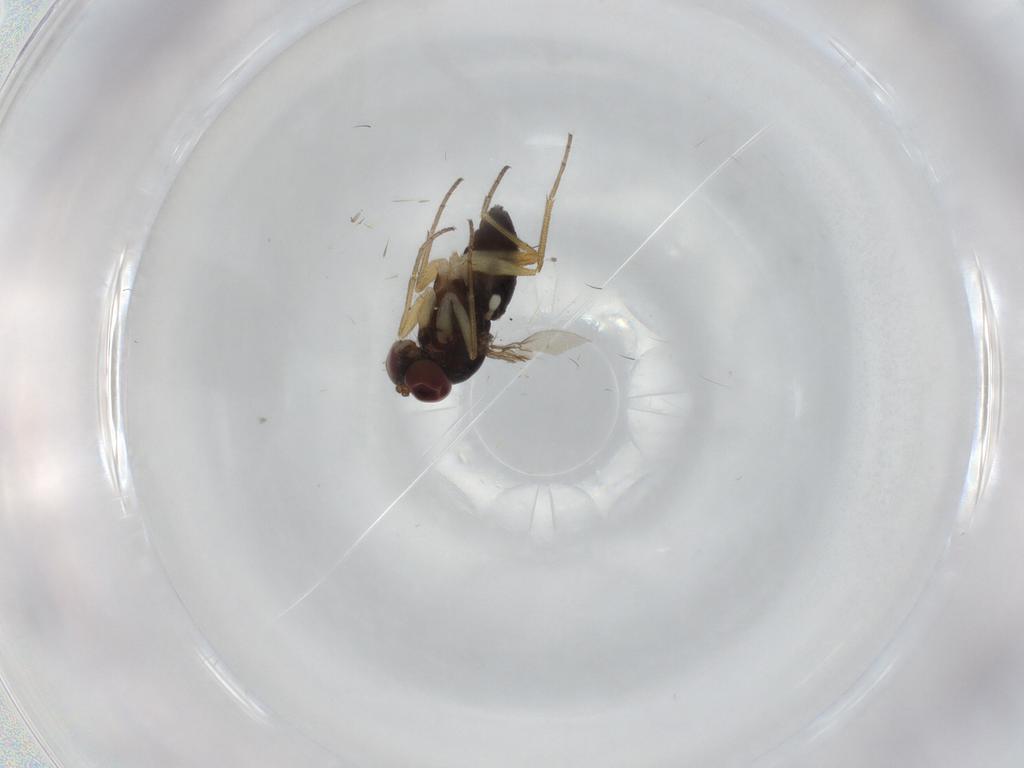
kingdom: Animalia
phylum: Arthropoda
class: Insecta
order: Diptera
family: Dolichopodidae
